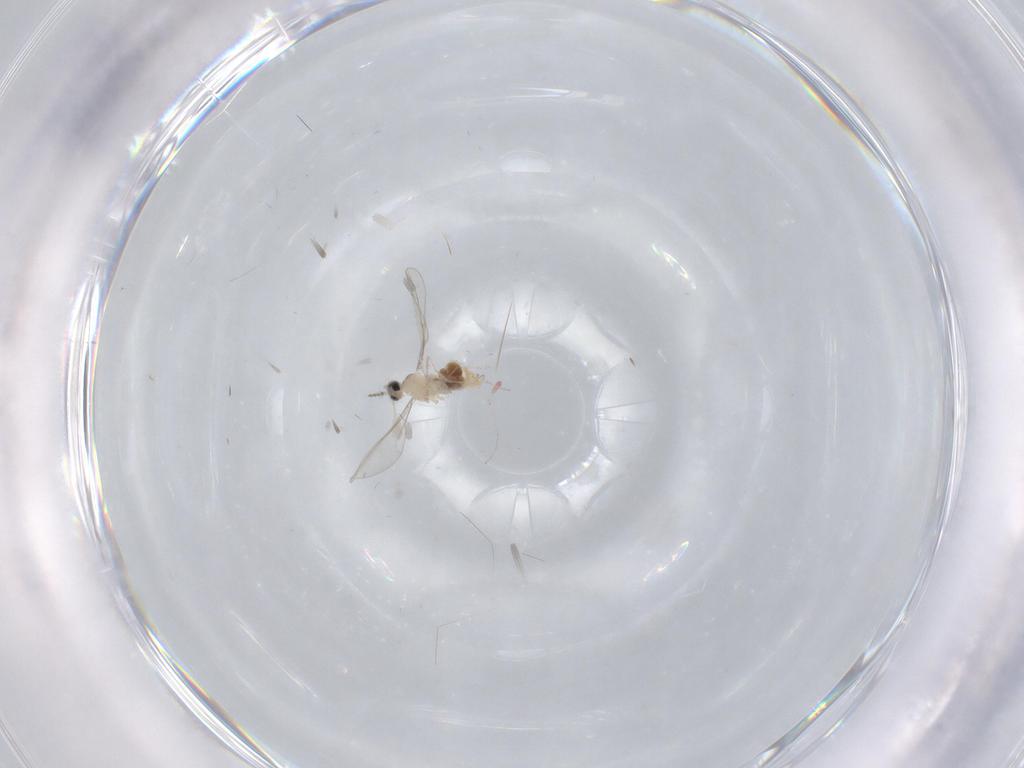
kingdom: Animalia
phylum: Arthropoda
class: Insecta
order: Diptera
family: Cecidomyiidae
